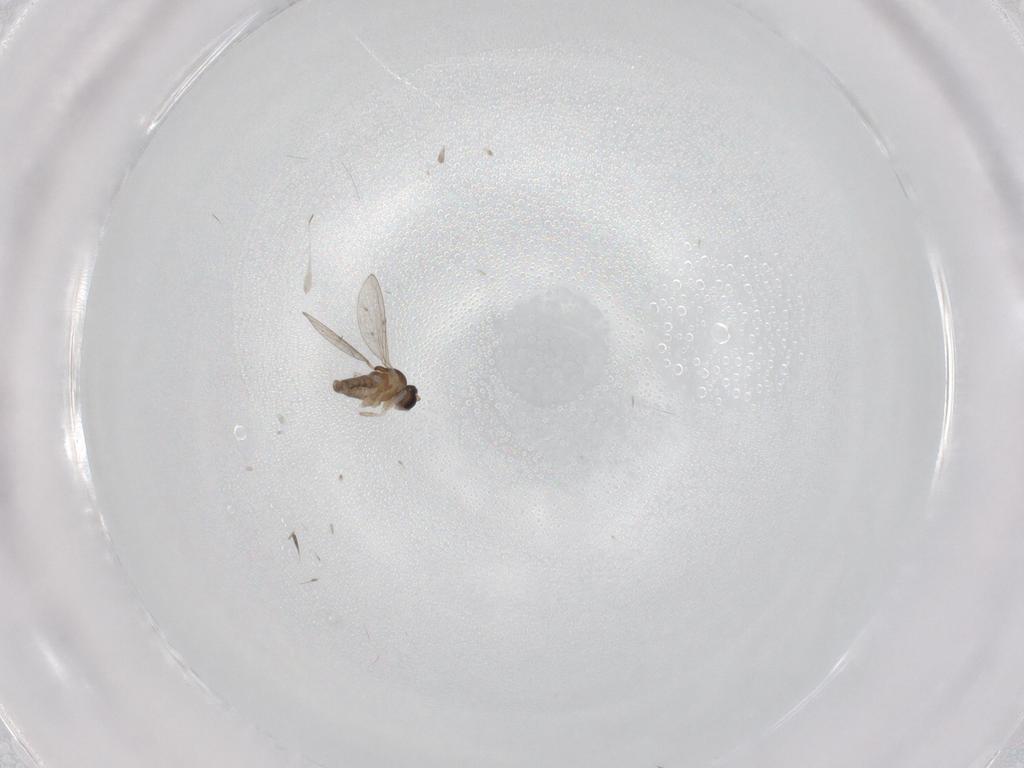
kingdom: Animalia
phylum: Arthropoda
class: Insecta
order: Diptera
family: Cecidomyiidae
